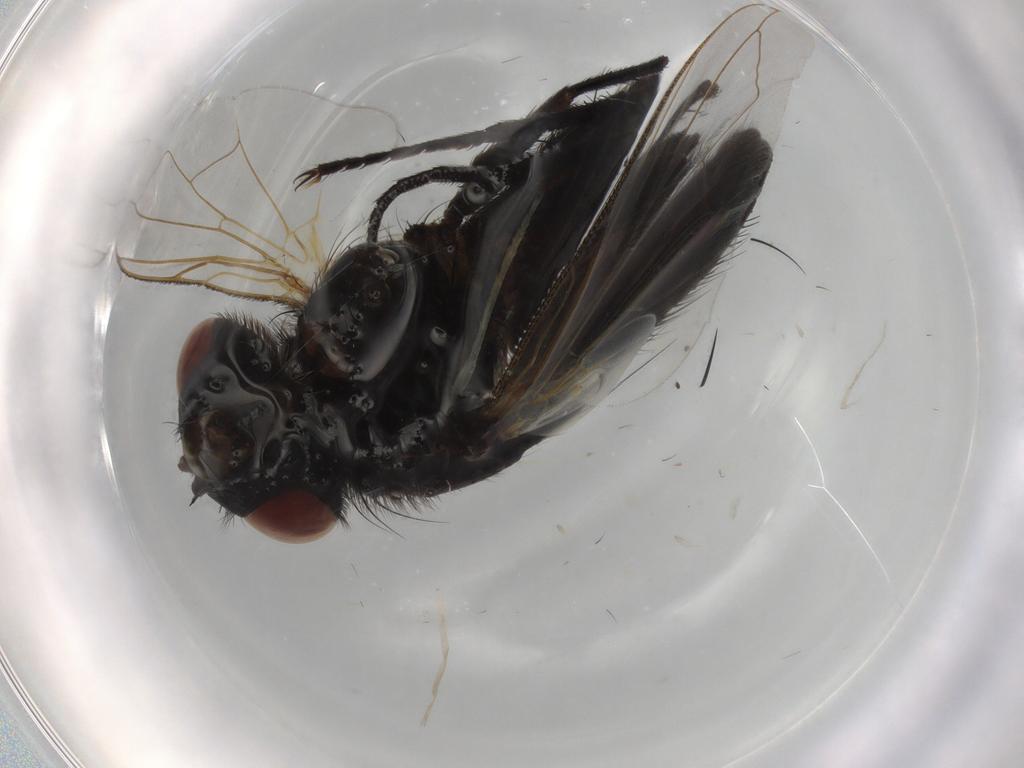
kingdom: Animalia
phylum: Arthropoda
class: Insecta
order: Diptera
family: Tachinidae
